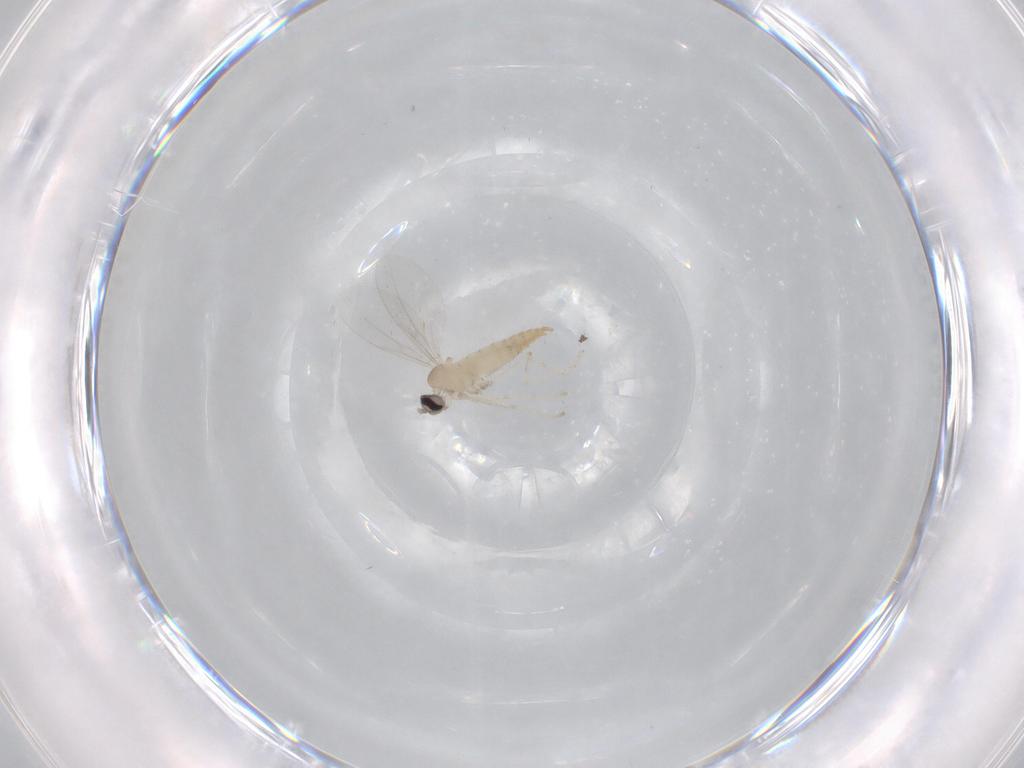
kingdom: Animalia
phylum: Arthropoda
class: Insecta
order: Diptera
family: Cecidomyiidae
